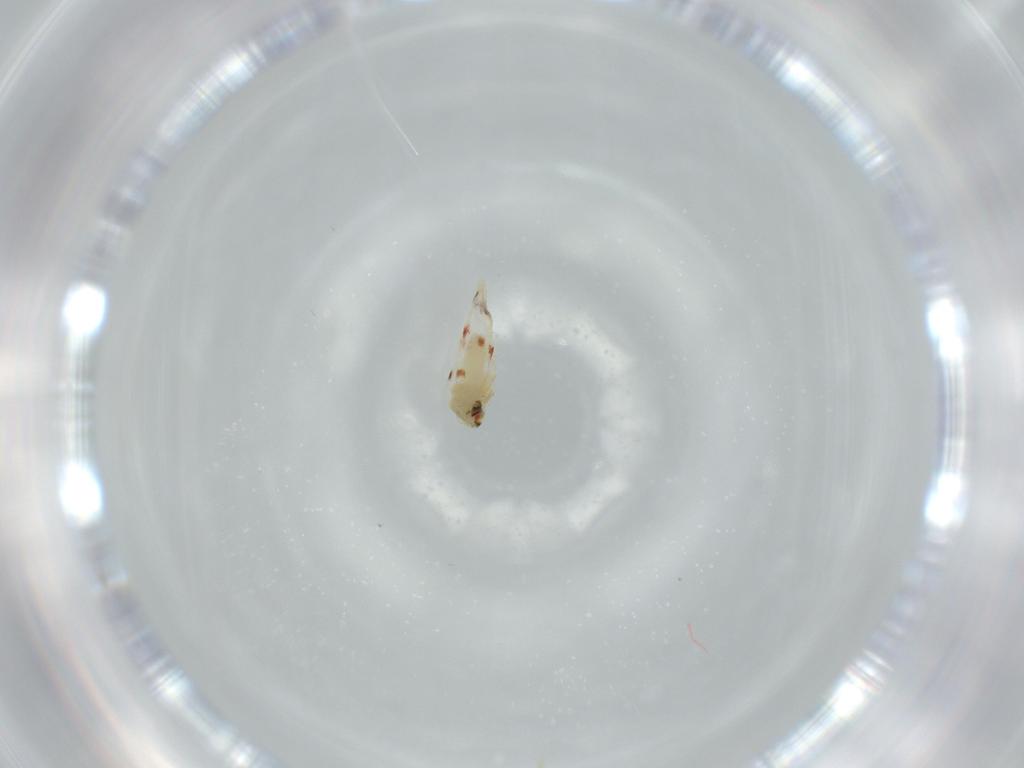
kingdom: Animalia
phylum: Arthropoda
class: Insecta
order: Hemiptera
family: Aleyrodidae
